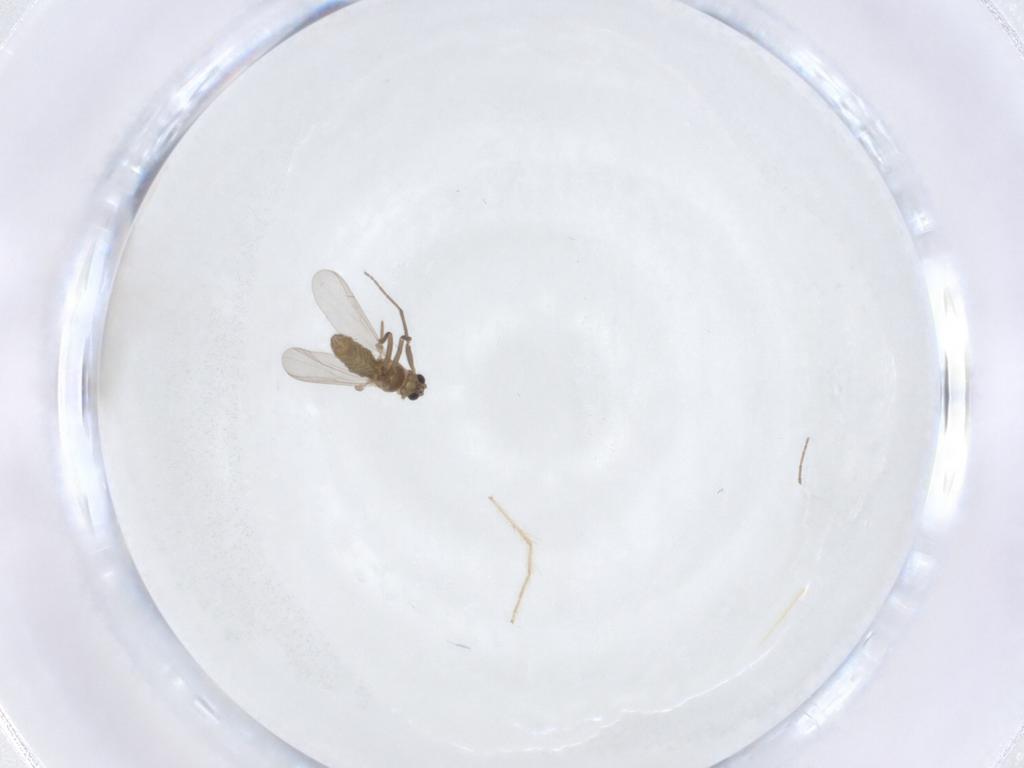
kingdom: Animalia
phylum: Arthropoda
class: Insecta
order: Diptera
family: Chironomidae
